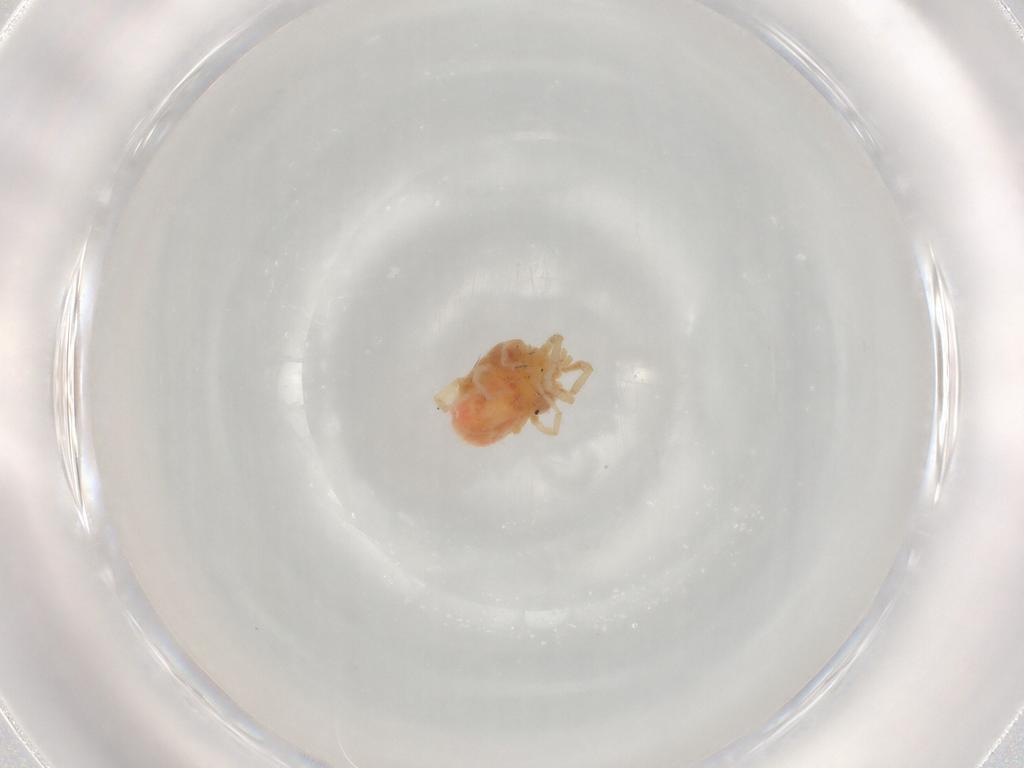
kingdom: Animalia
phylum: Arthropoda
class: Arachnida
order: Trombidiformes
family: Erythraeidae
